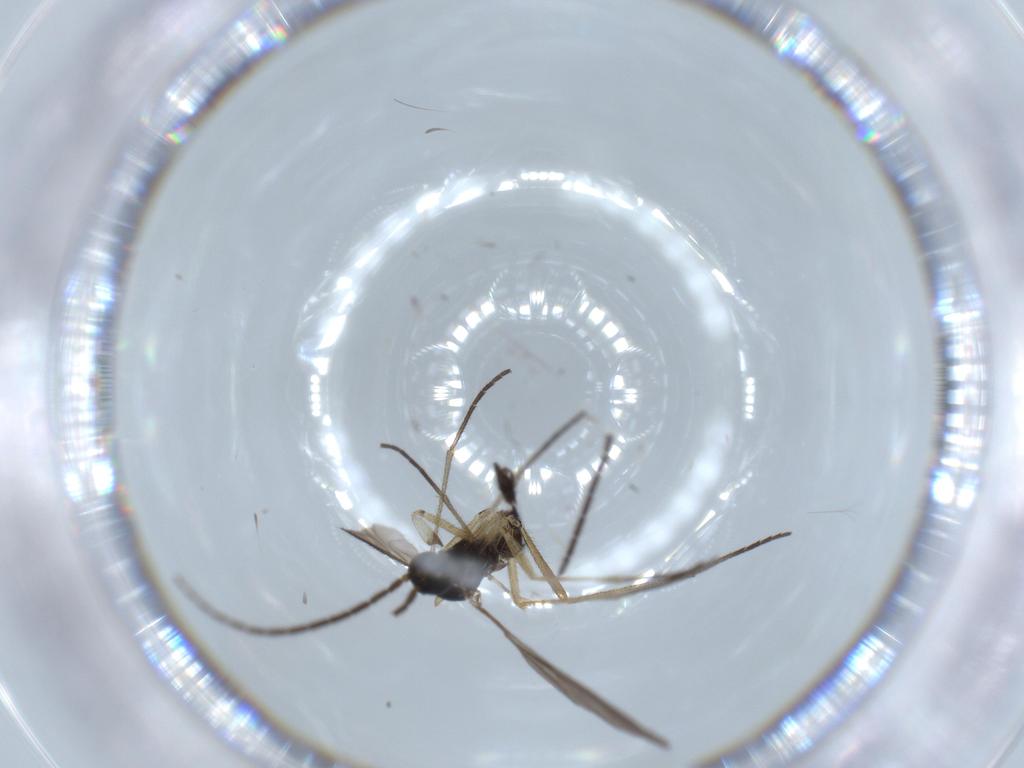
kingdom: Animalia
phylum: Arthropoda
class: Insecta
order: Diptera
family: Sciaridae
